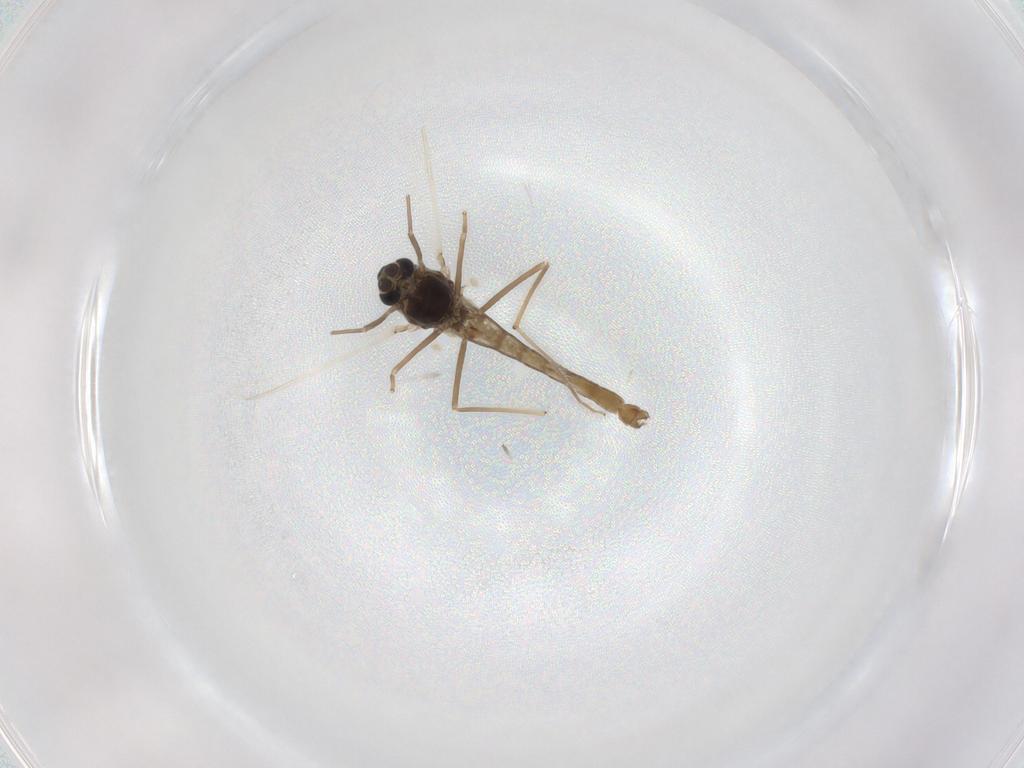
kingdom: Animalia
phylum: Arthropoda
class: Insecta
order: Diptera
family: Chironomidae
